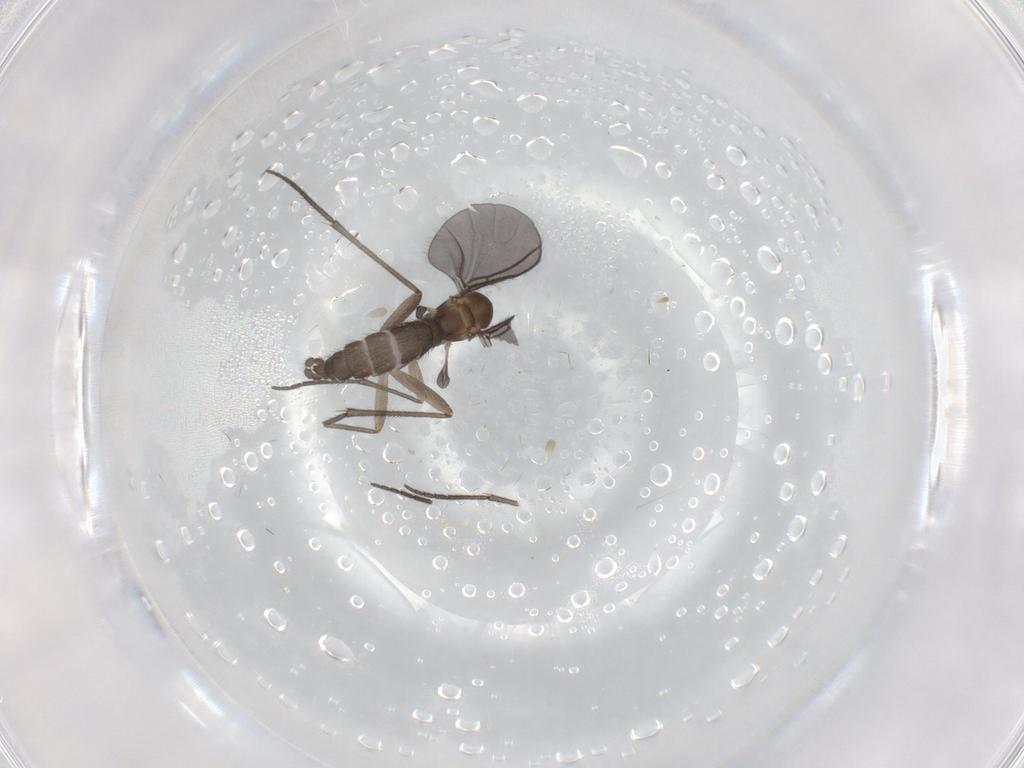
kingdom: Animalia
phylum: Arthropoda
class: Insecta
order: Diptera
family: Sciaridae
